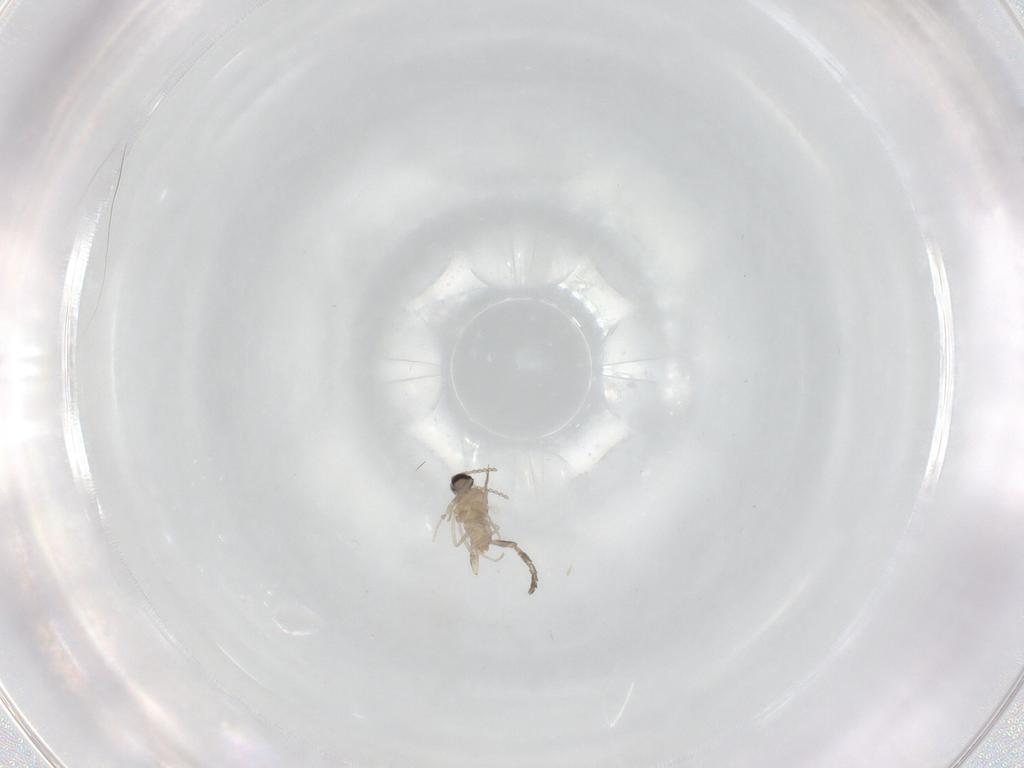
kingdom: Animalia
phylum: Arthropoda
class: Insecta
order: Diptera
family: Cecidomyiidae
